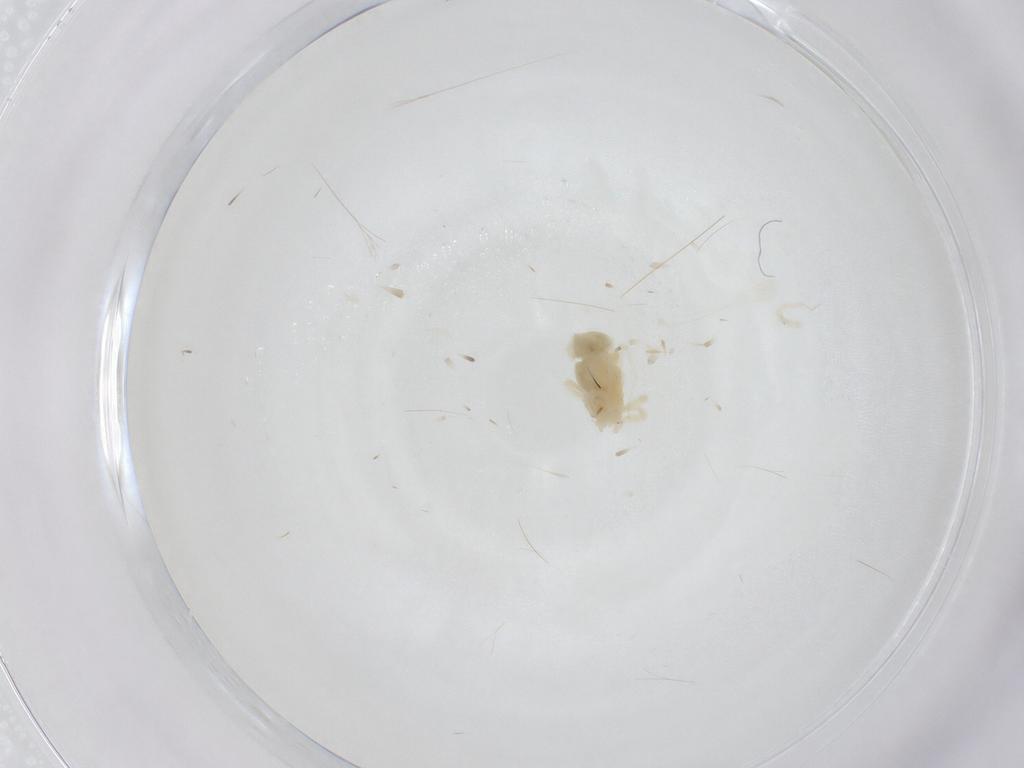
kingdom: Animalia
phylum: Arthropoda
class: Arachnida
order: Trombidiformes
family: Anystidae
